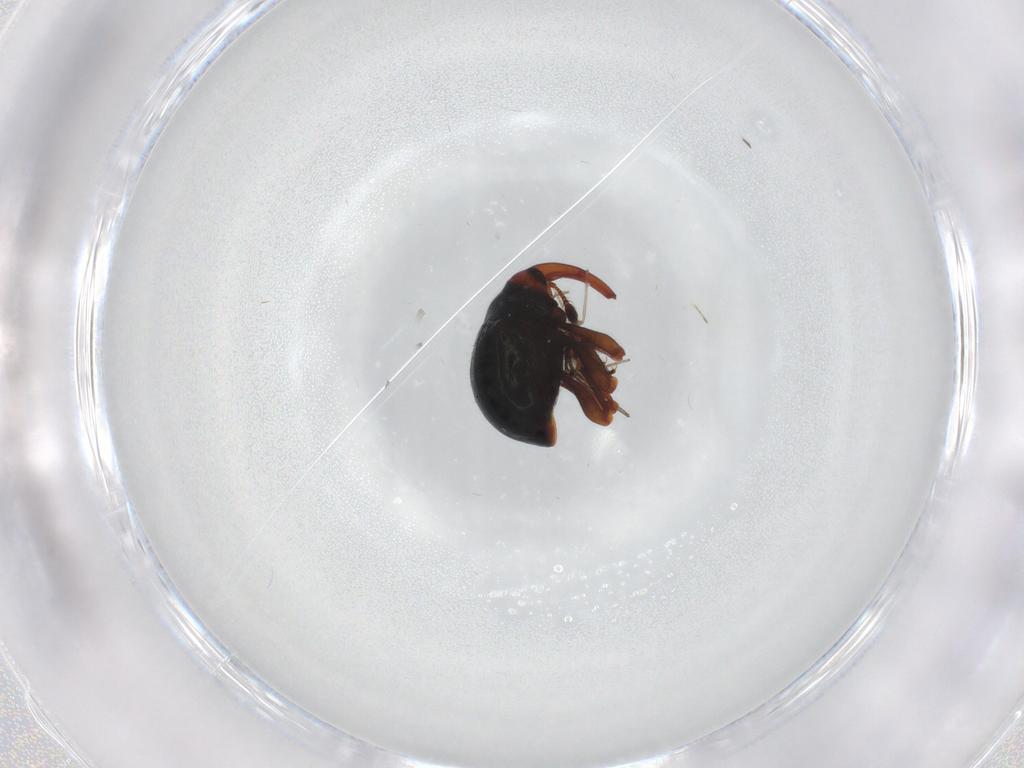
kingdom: Animalia
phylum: Arthropoda
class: Insecta
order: Coleoptera
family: Curculionidae
